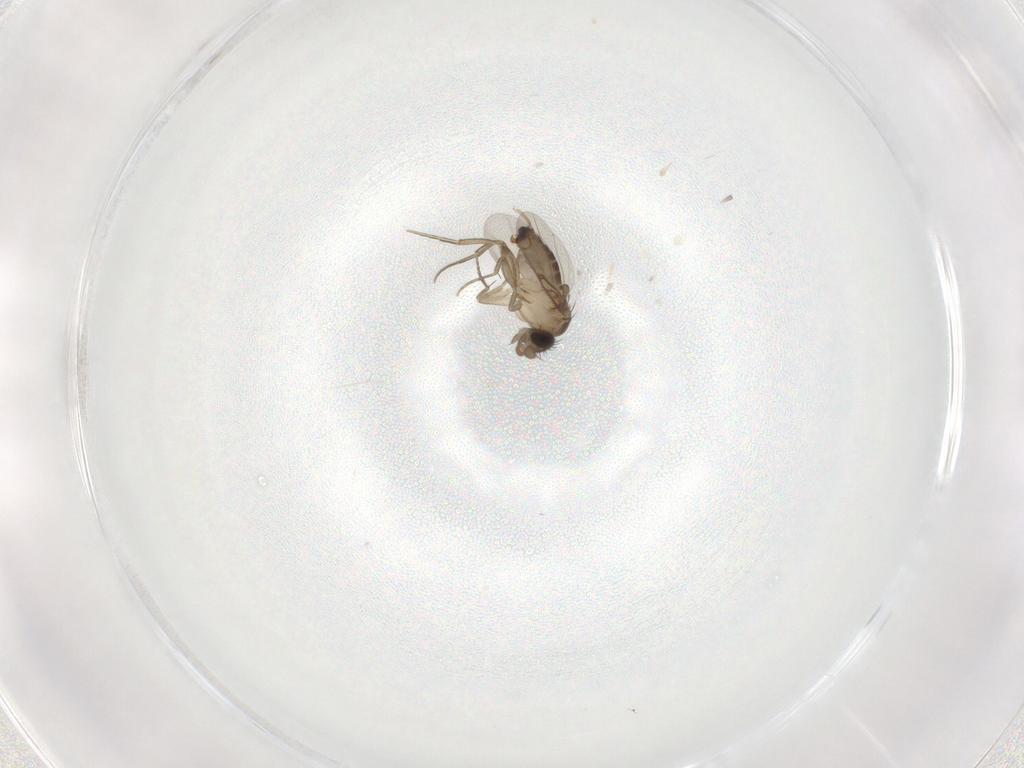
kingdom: Animalia
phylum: Arthropoda
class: Insecta
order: Diptera
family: Phoridae
